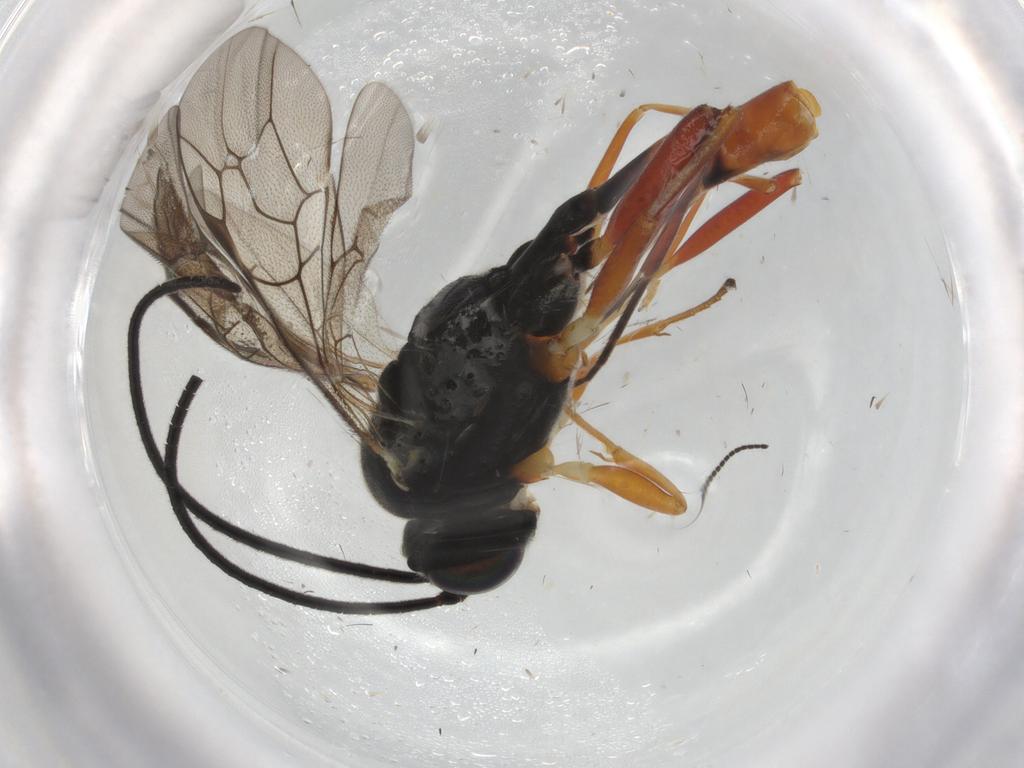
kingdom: Animalia
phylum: Arthropoda
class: Insecta
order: Hymenoptera
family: Ichneumonidae
